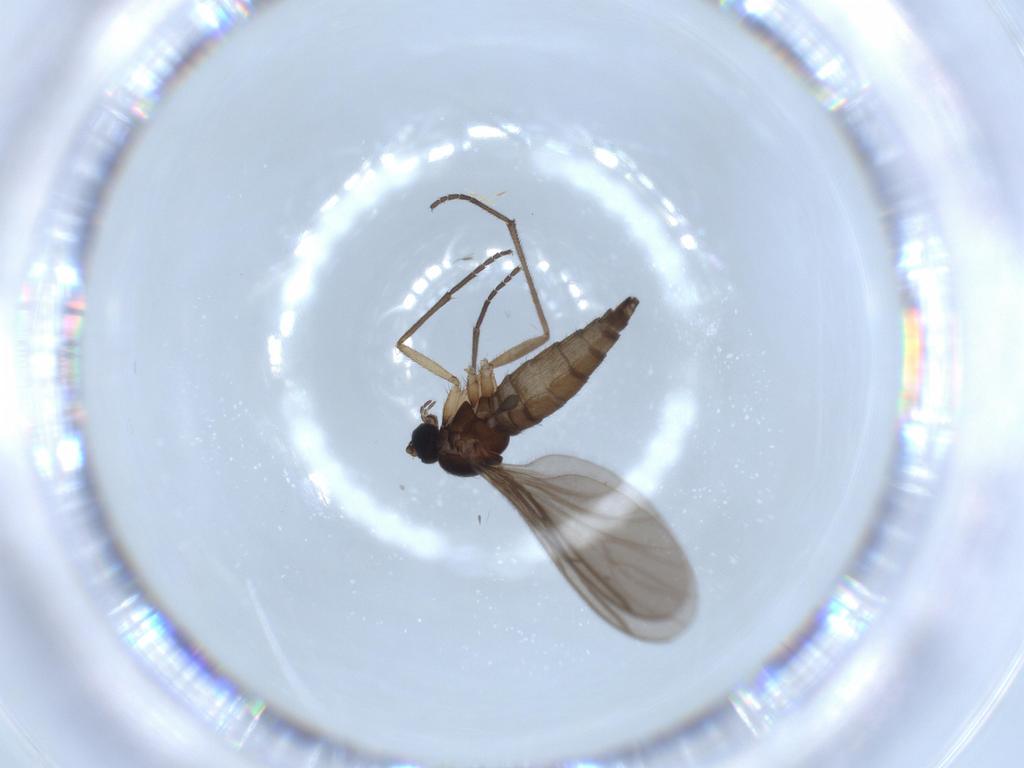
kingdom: Animalia
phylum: Arthropoda
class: Insecta
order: Diptera
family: Sciaridae
